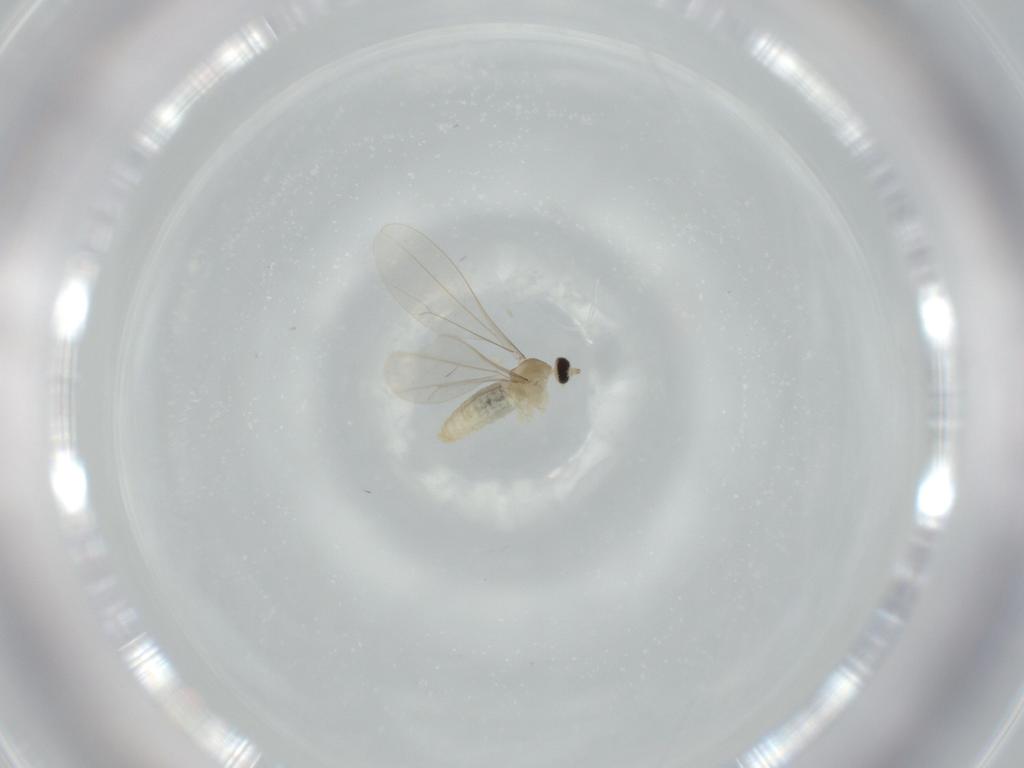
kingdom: Animalia
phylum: Arthropoda
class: Insecta
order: Diptera
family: Cecidomyiidae
